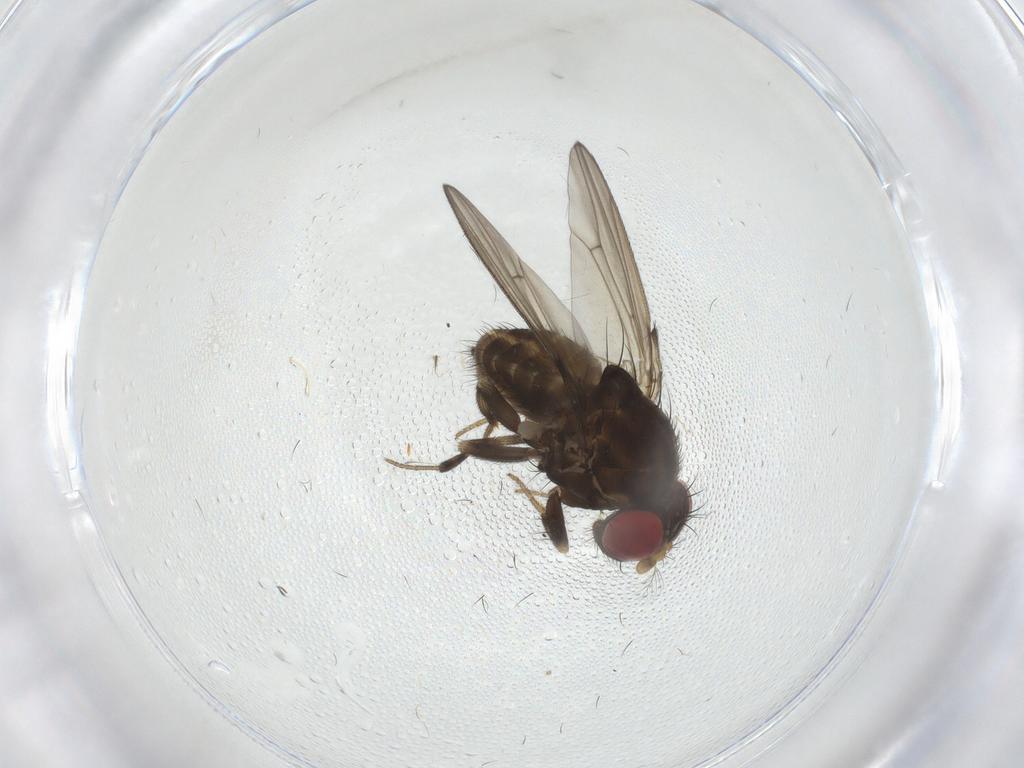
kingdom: Animalia
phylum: Arthropoda
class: Insecta
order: Diptera
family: Drosophilidae
